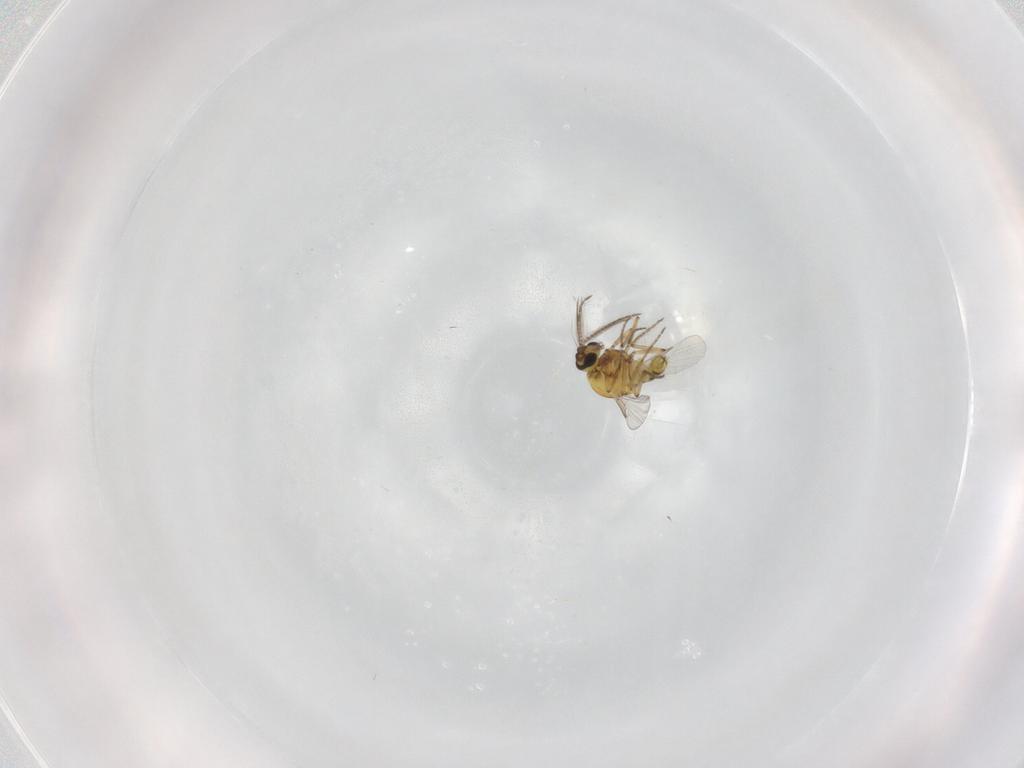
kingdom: Animalia
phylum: Arthropoda
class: Insecta
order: Diptera
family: Ceratopogonidae
